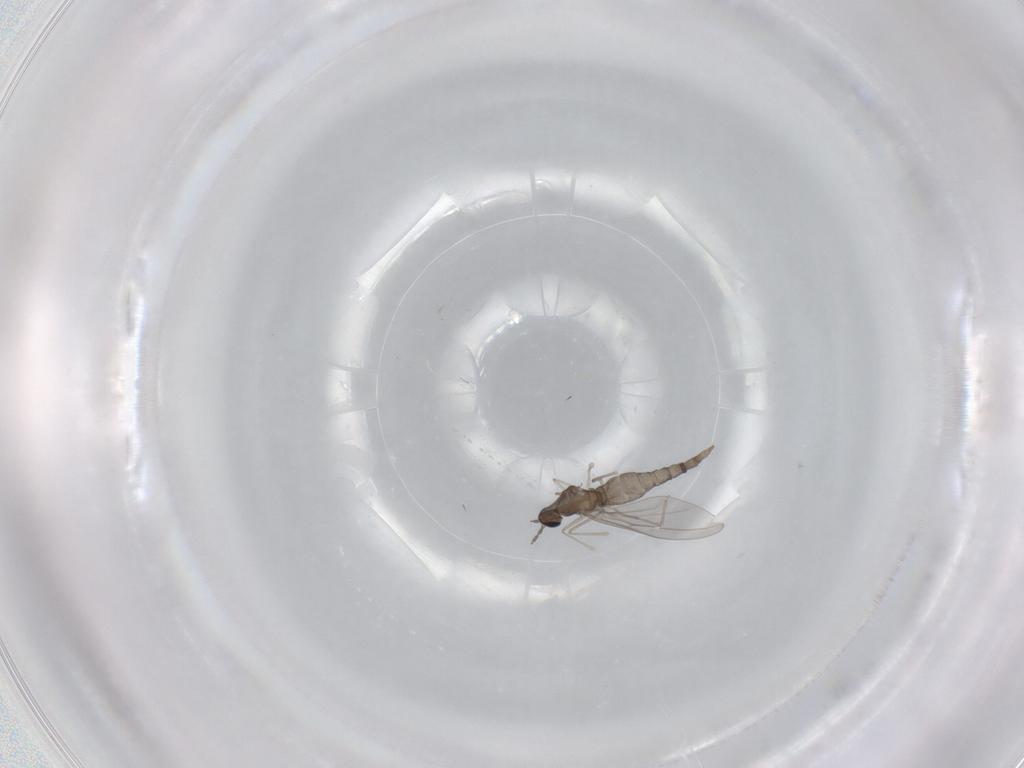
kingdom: Animalia
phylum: Arthropoda
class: Insecta
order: Diptera
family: Cecidomyiidae
